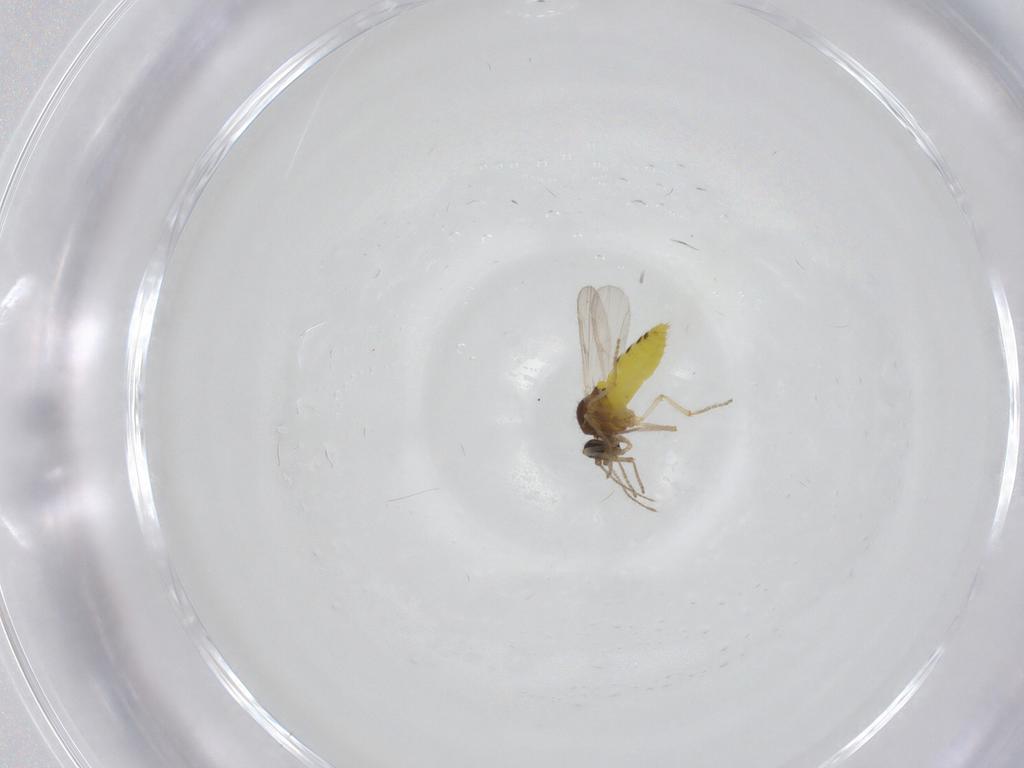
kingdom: Animalia
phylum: Arthropoda
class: Insecta
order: Diptera
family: Ceratopogonidae
